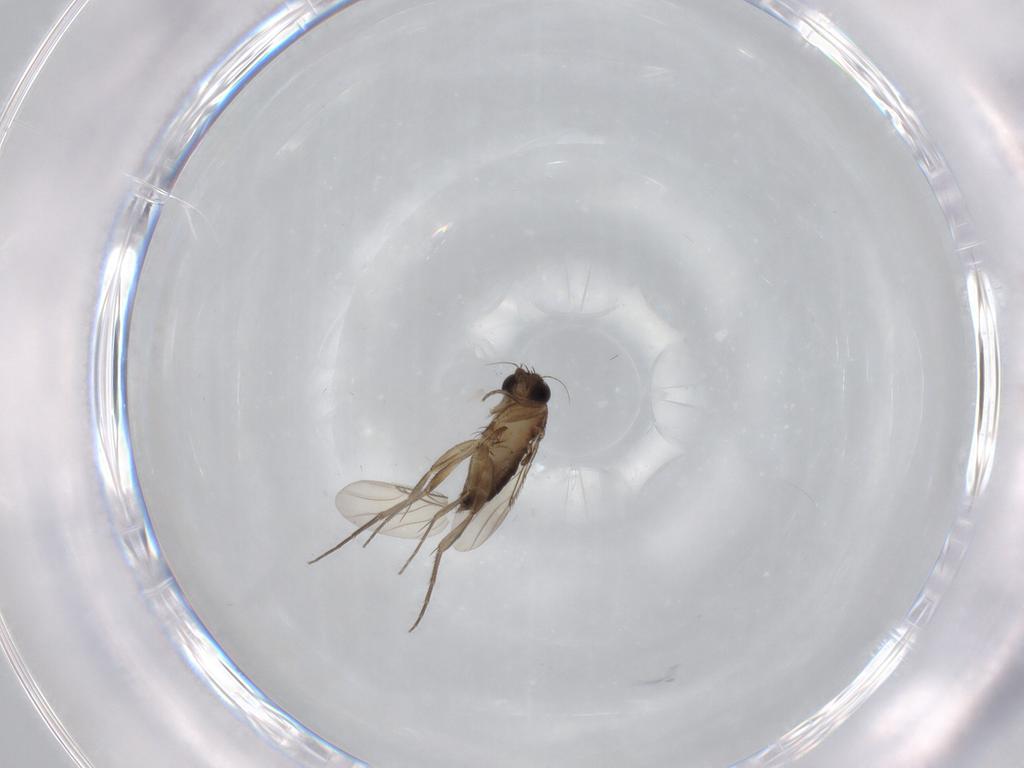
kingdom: Animalia
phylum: Arthropoda
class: Insecta
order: Diptera
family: Phoridae
